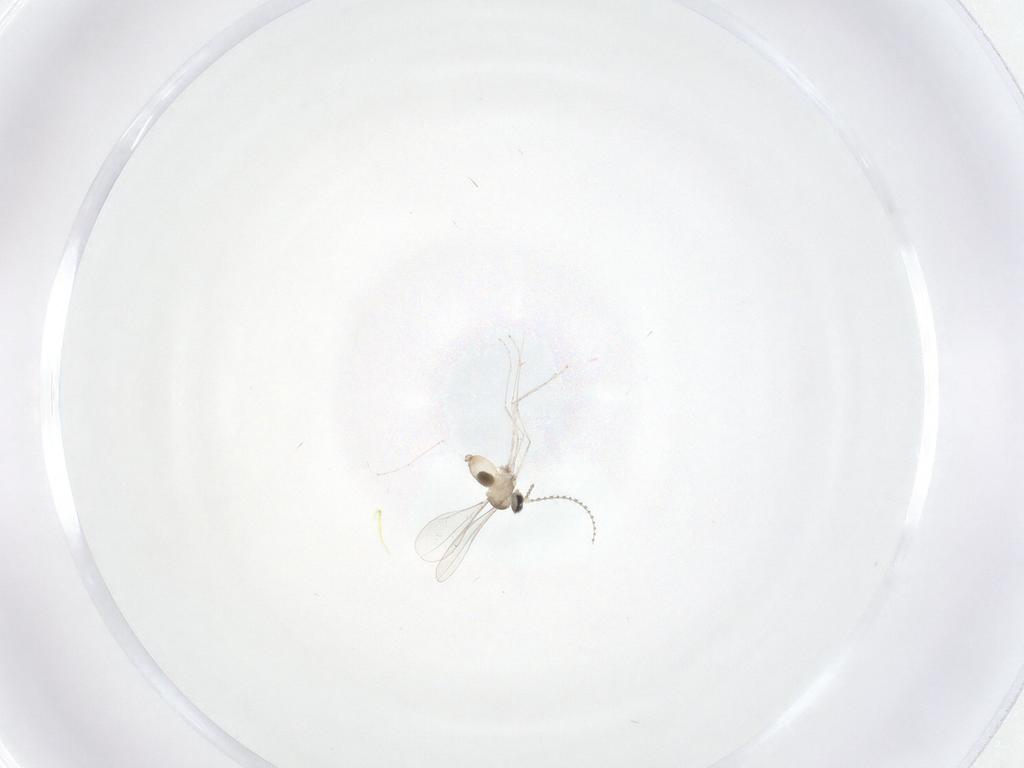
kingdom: Animalia
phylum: Arthropoda
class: Insecta
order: Diptera
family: Cecidomyiidae
